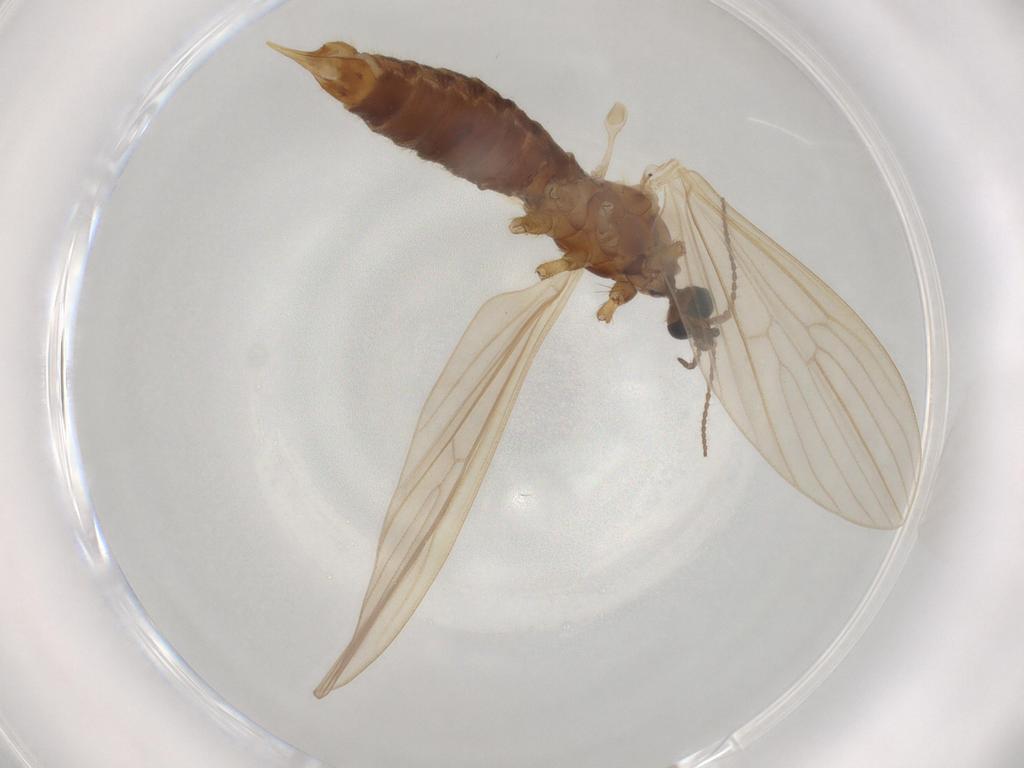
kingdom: Animalia
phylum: Arthropoda
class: Insecta
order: Diptera
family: Limoniidae
